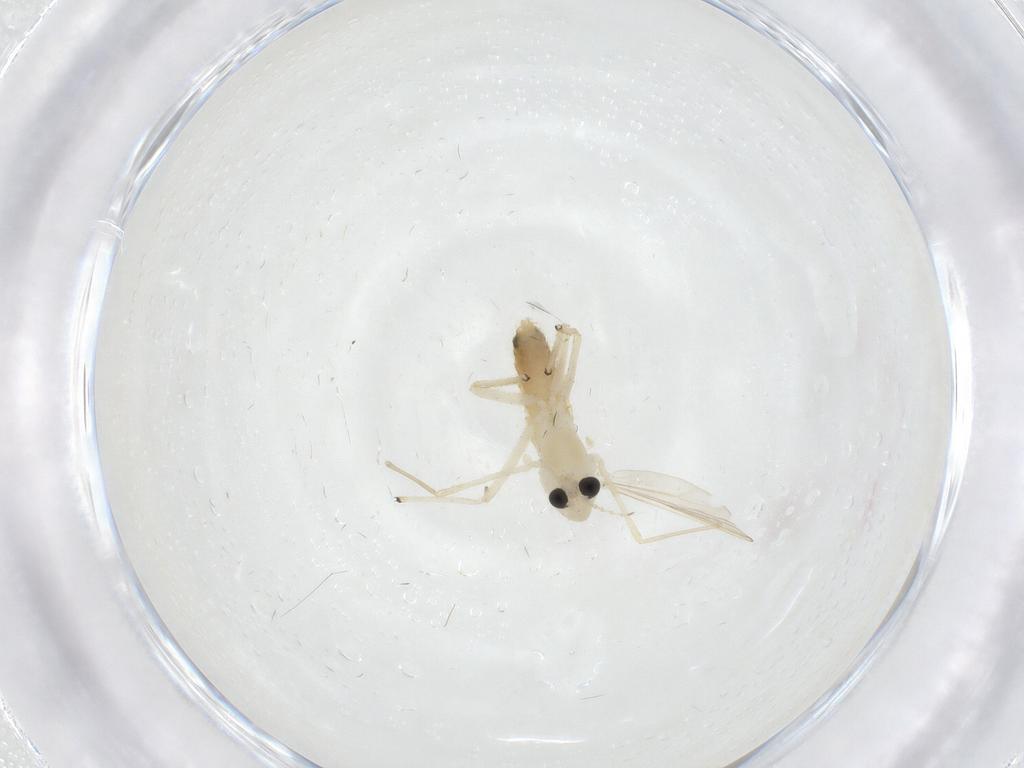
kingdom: Animalia
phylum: Arthropoda
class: Insecta
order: Diptera
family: Chironomidae
